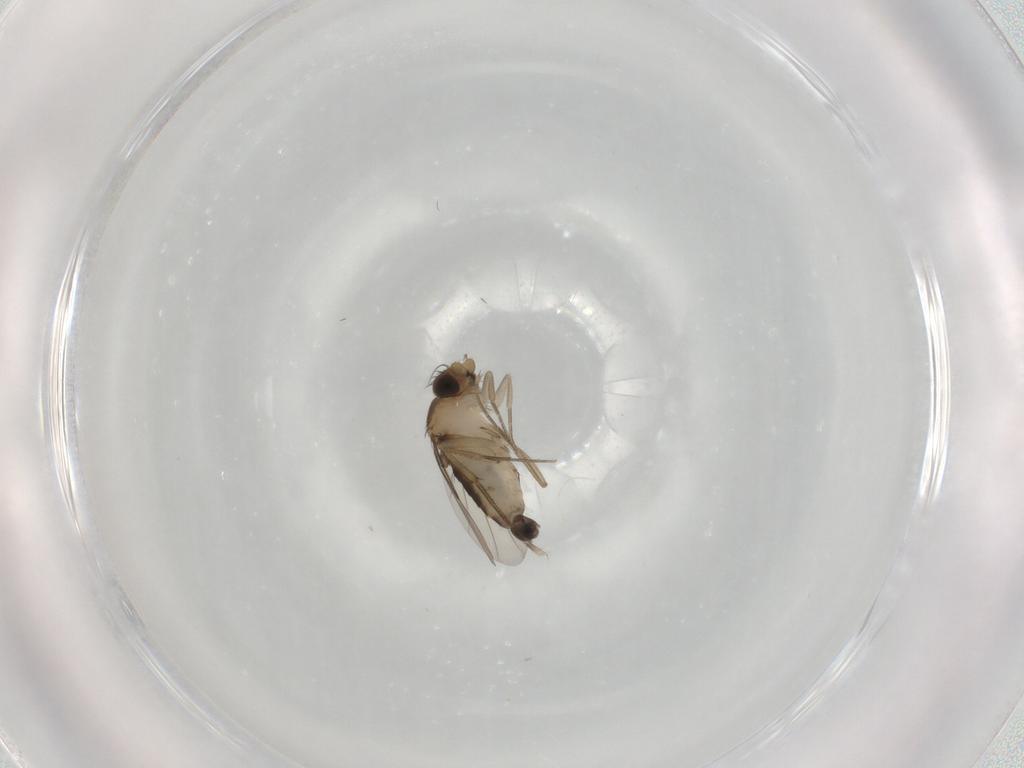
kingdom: Animalia
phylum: Arthropoda
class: Insecta
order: Diptera
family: Phoridae
